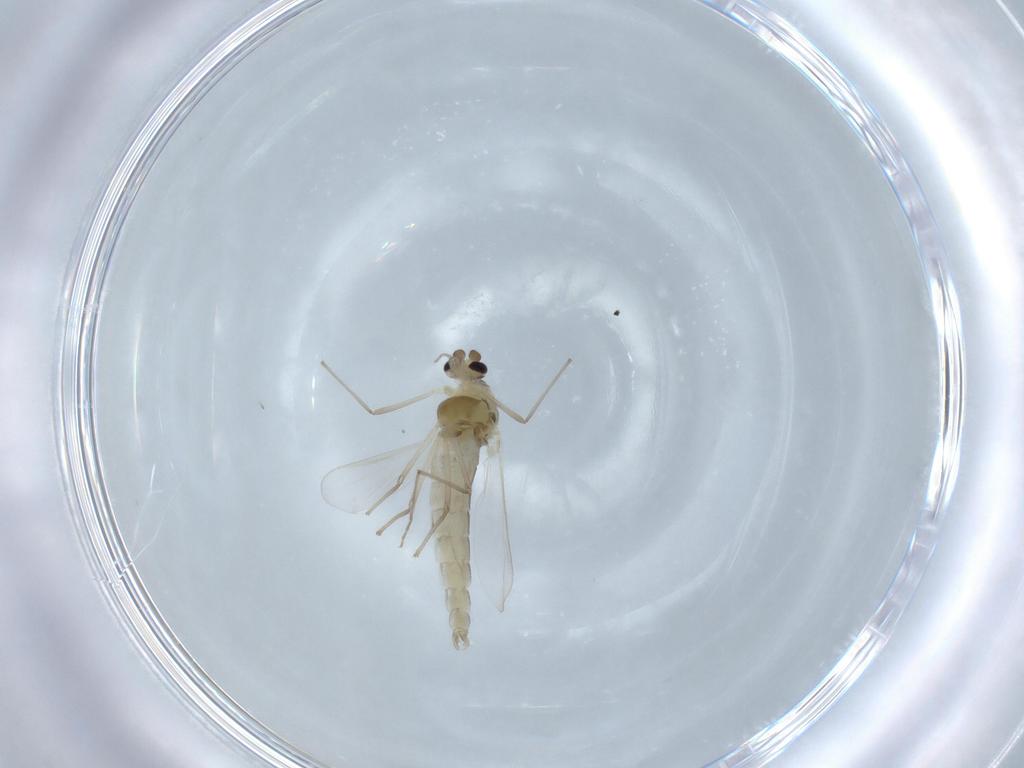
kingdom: Animalia
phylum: Arthropoda
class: Insecta
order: Diptera
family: Chironomidae
